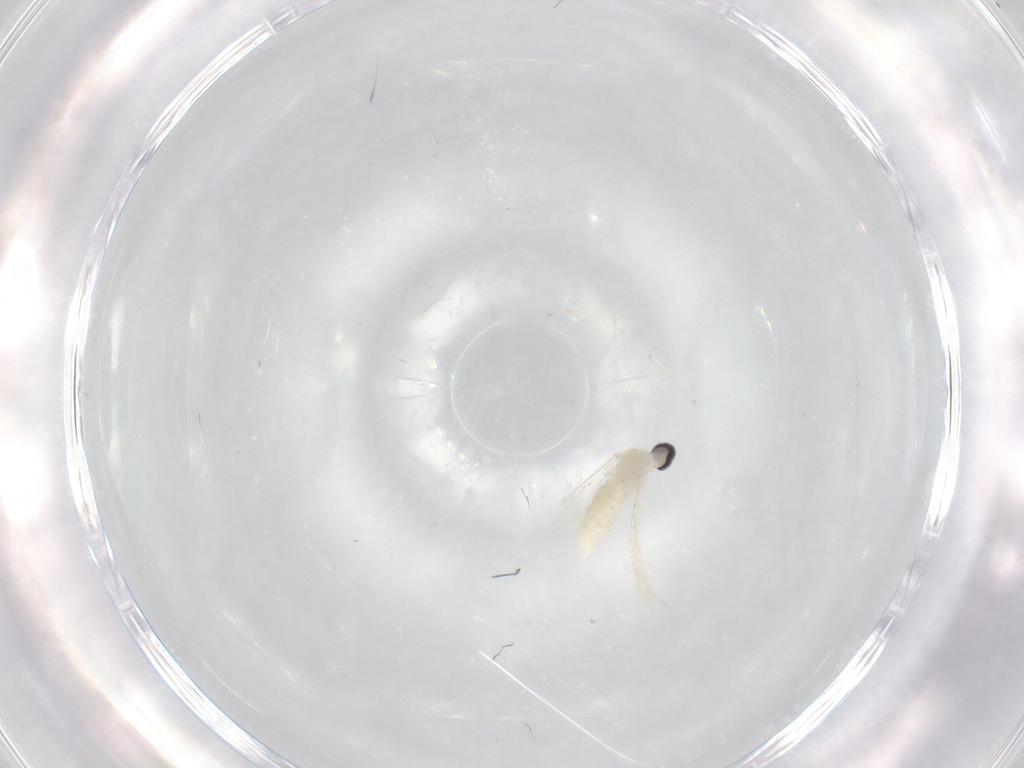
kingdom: Animalia
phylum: Arthropoda
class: Insecta
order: Diptera
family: Cecidomyiidae
